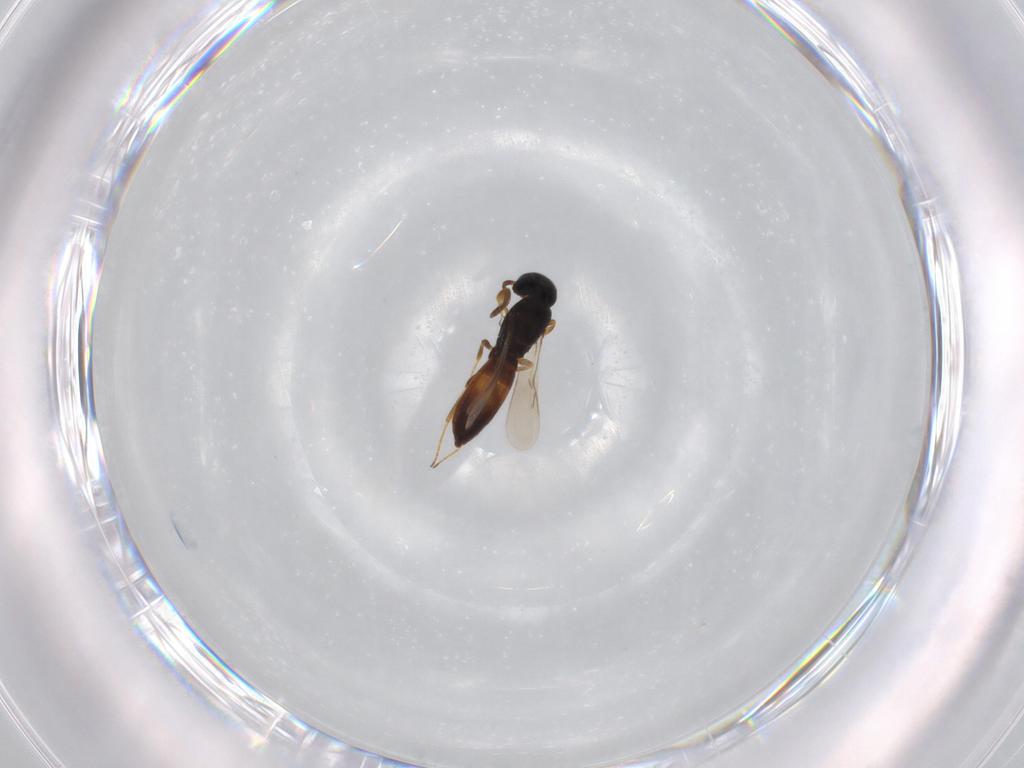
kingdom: Animalia
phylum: Arthropoda
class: Insecta
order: Hymenoptera
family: Scelionidae
